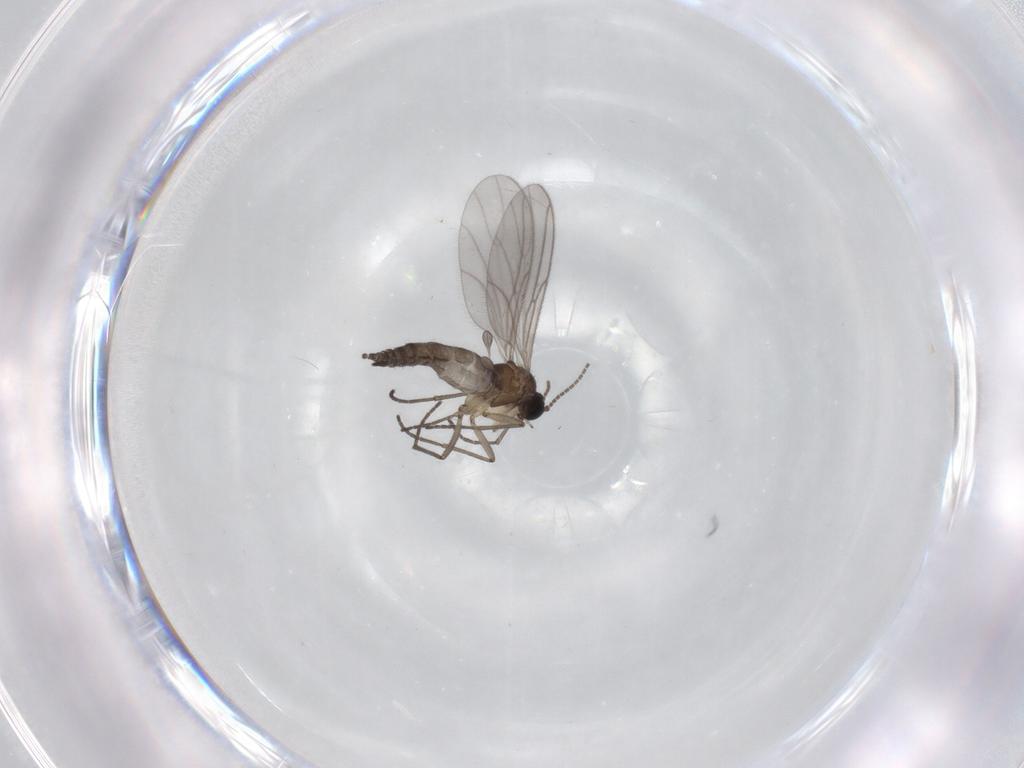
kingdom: Animalia
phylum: Arthropoda
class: Insecta
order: Diptera
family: Sciaridae
